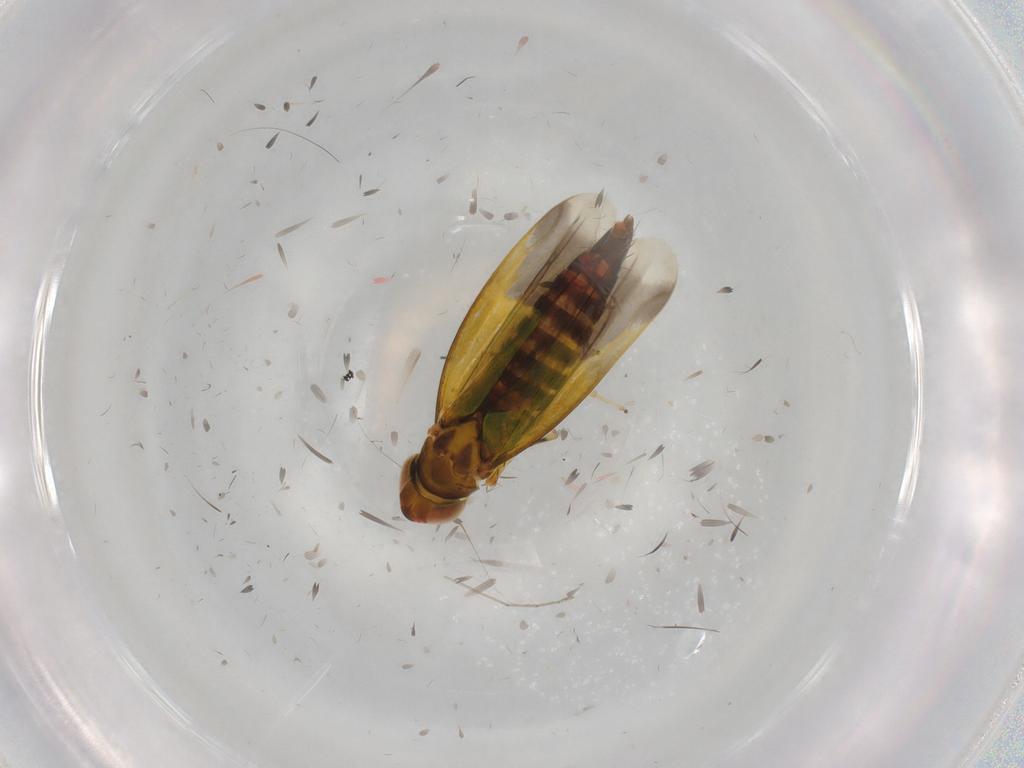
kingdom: Animalia
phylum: Arthropoda
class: Insecta
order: Hemiptera
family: Cicadellidae
